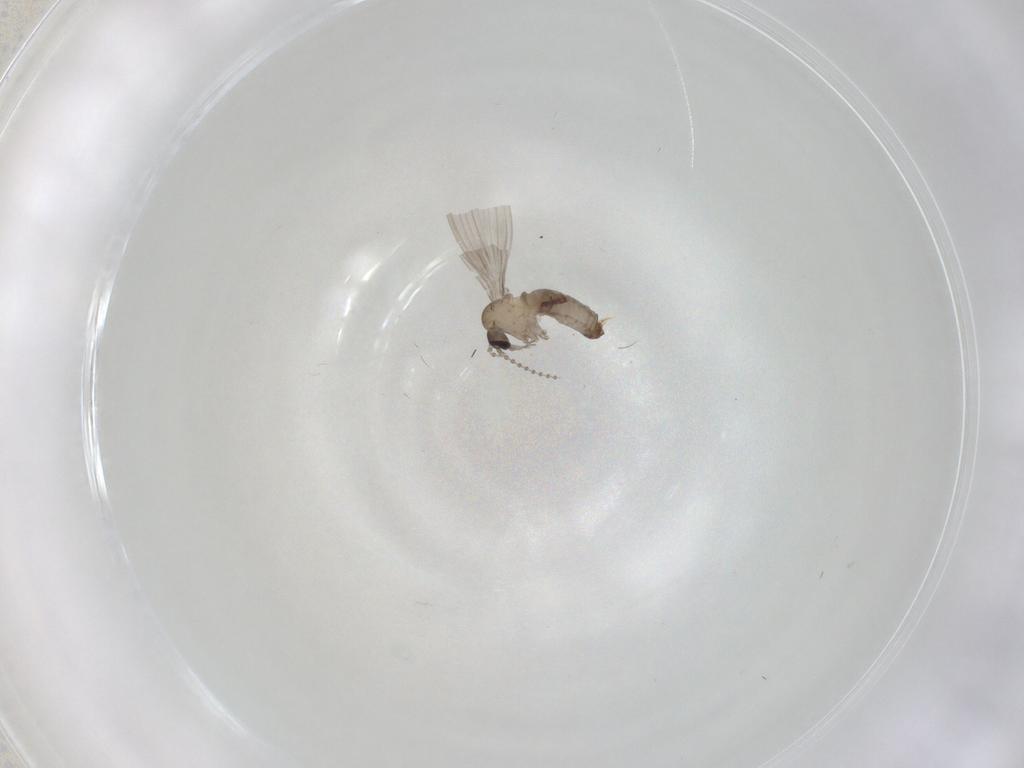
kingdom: Animalia
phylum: Arthropoda
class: Insecta
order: Diptera
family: Psychodidae
